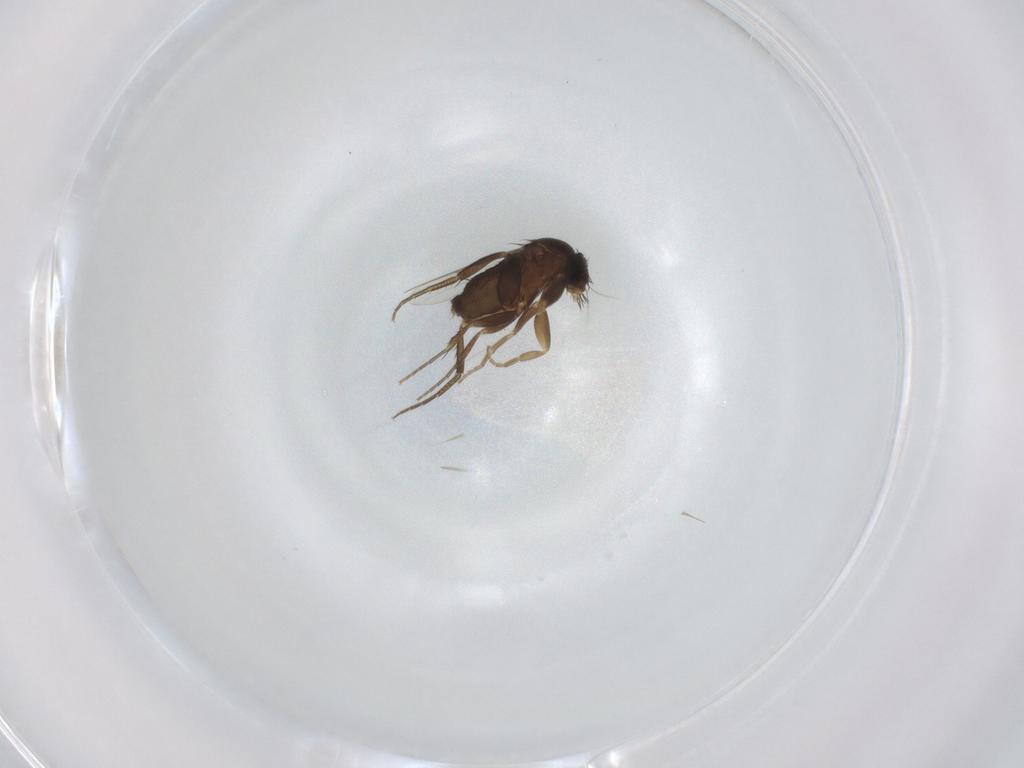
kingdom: Animalia
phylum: Arthropoda
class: Insecta
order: Diptera
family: Phoridae
